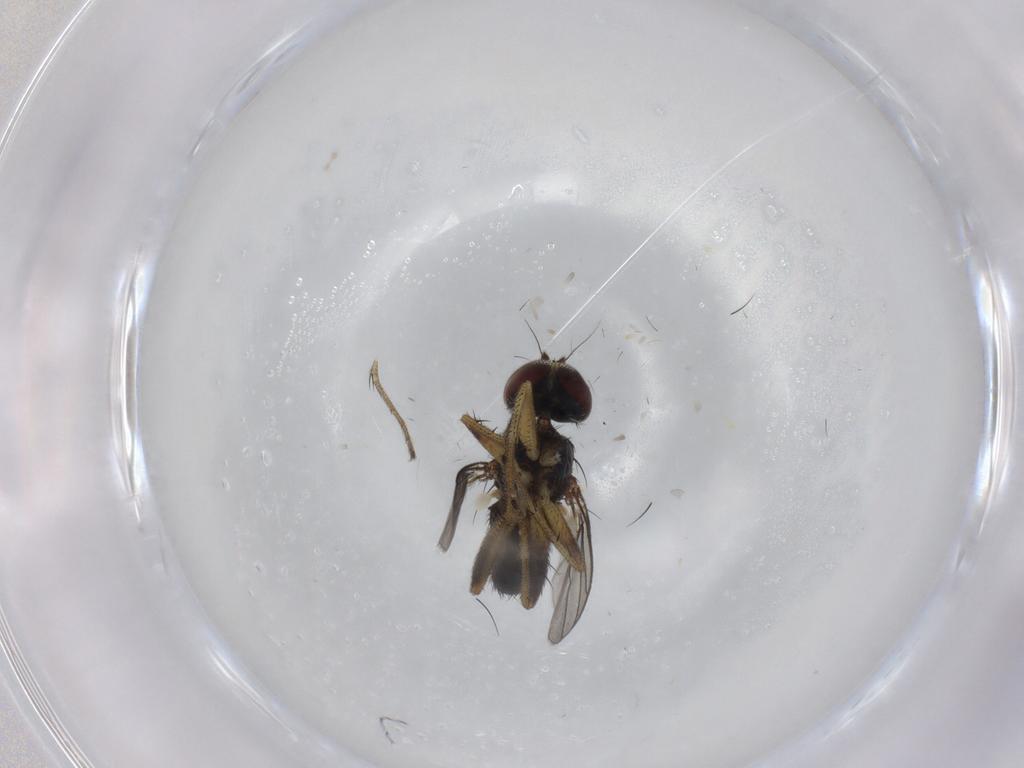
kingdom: Animalia
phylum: Arthropoda
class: Insecta
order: Diptera
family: Dolichopodidae
